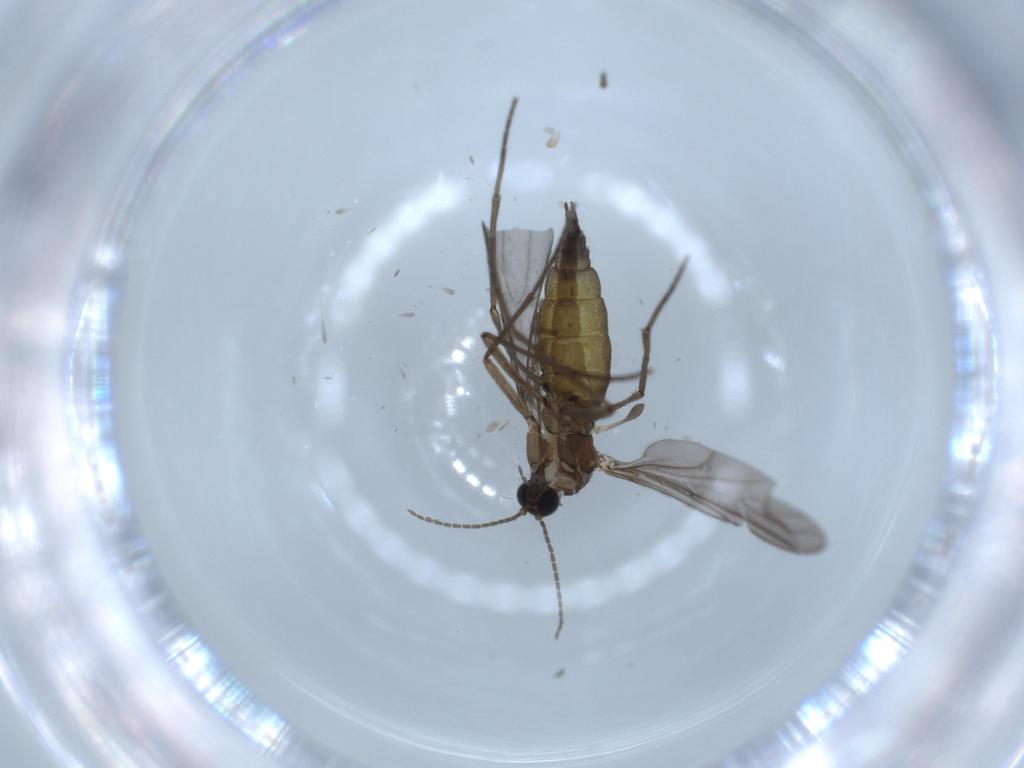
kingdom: Animalia
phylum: Arthropoda
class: Insecta
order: Diptera
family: Sciaridae
